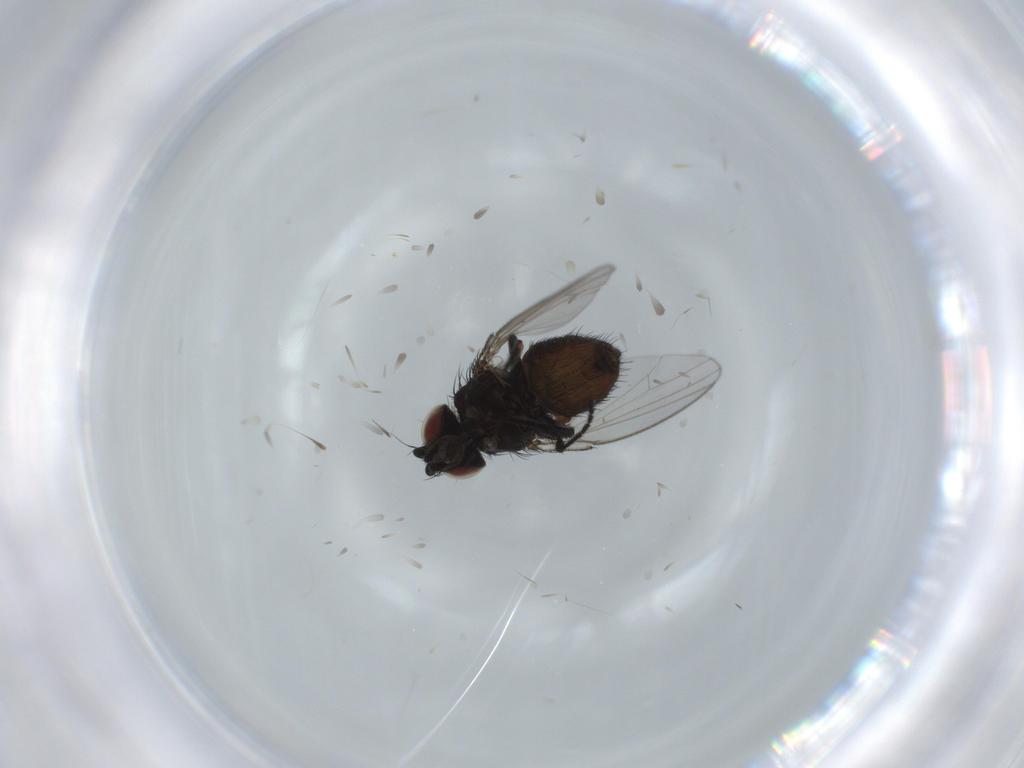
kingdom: Animalia
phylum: Arthropoda
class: Insecta
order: Diptera
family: Milichiidae
